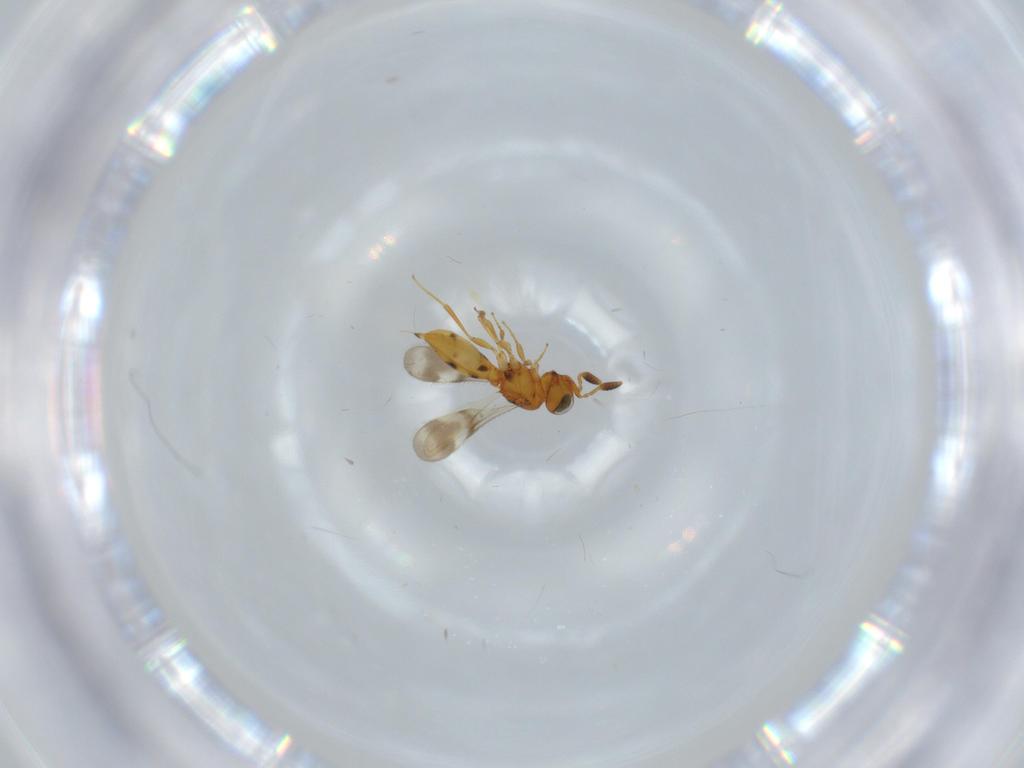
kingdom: Animalia
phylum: Arthropoda
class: Insecta
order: Hymenoptera
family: Scelionidae
